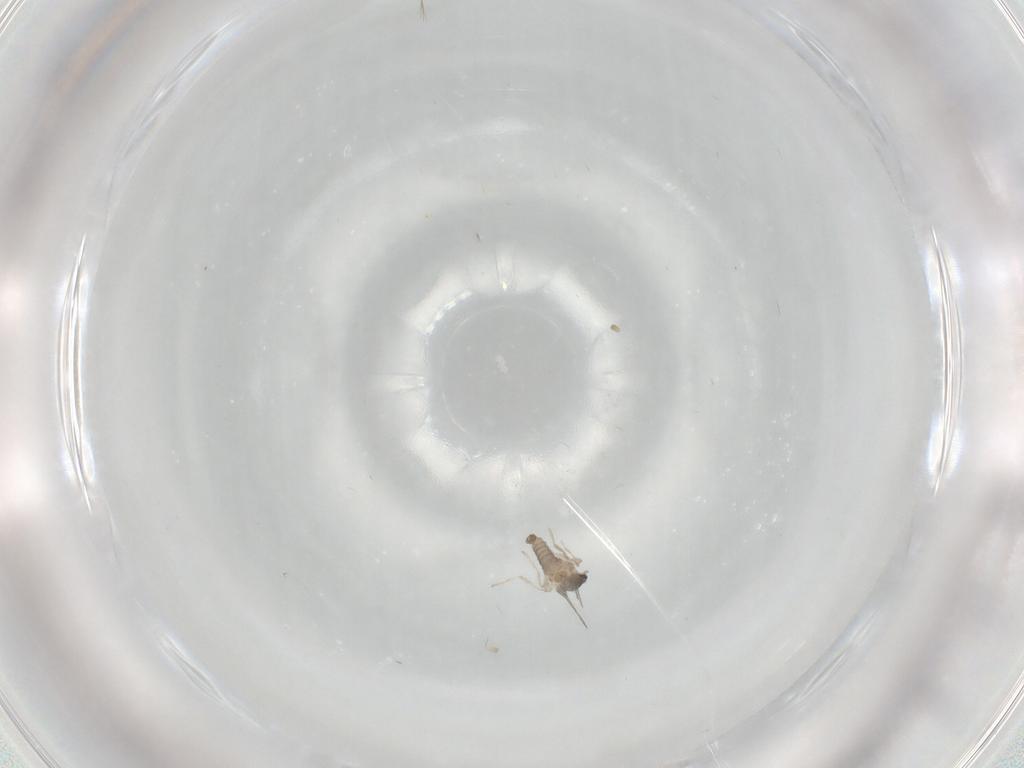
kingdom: Animalia
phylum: Arthropoda
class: Insecta
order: Diptera
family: Cecidomyiidae
